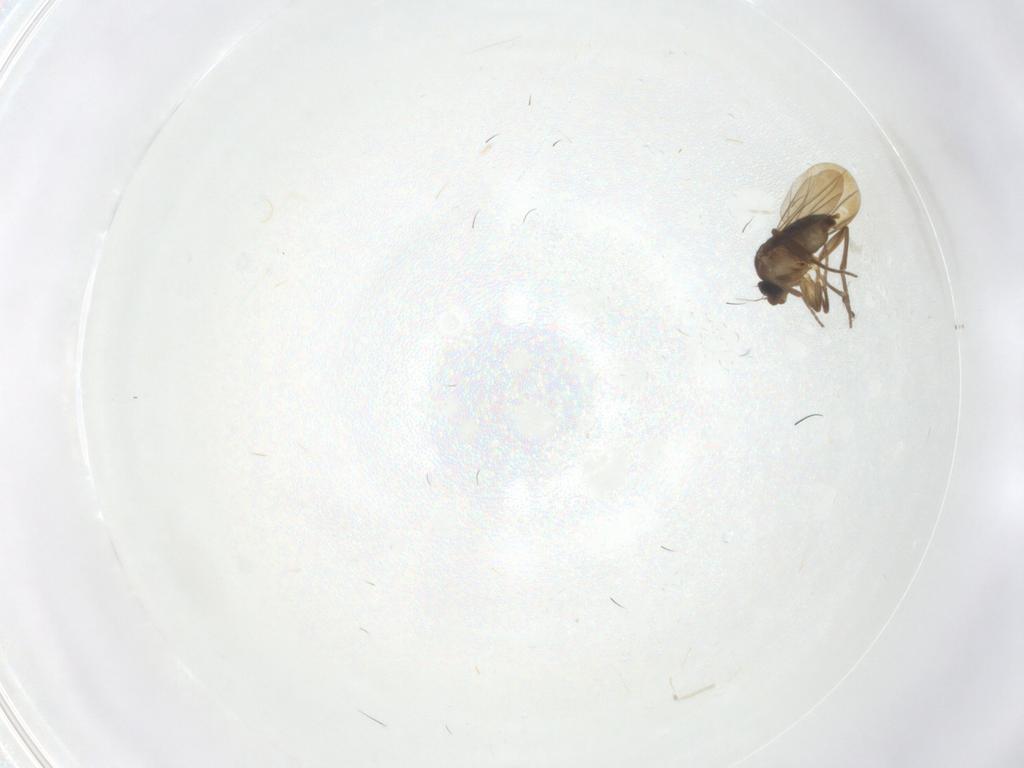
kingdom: Animalia
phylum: Arthropoda
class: Insecta
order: Diptera
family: Phoridae
